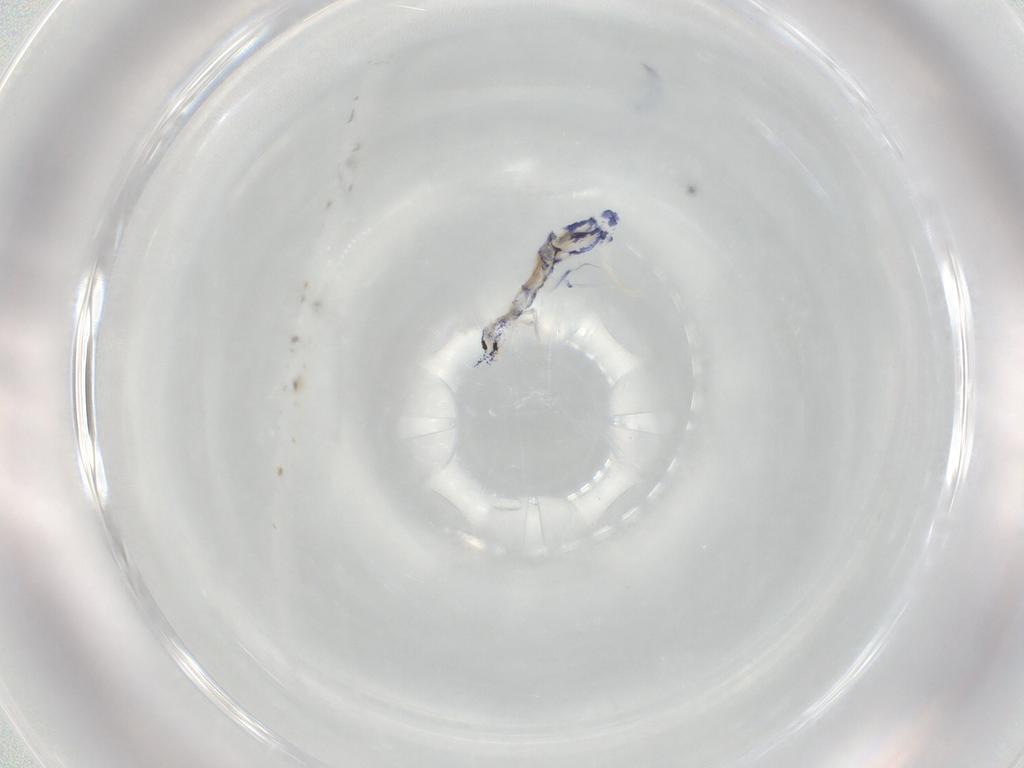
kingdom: Animalia
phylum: Arthropoda
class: Collembola
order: Entomobryomorpha
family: Entomobryidae
